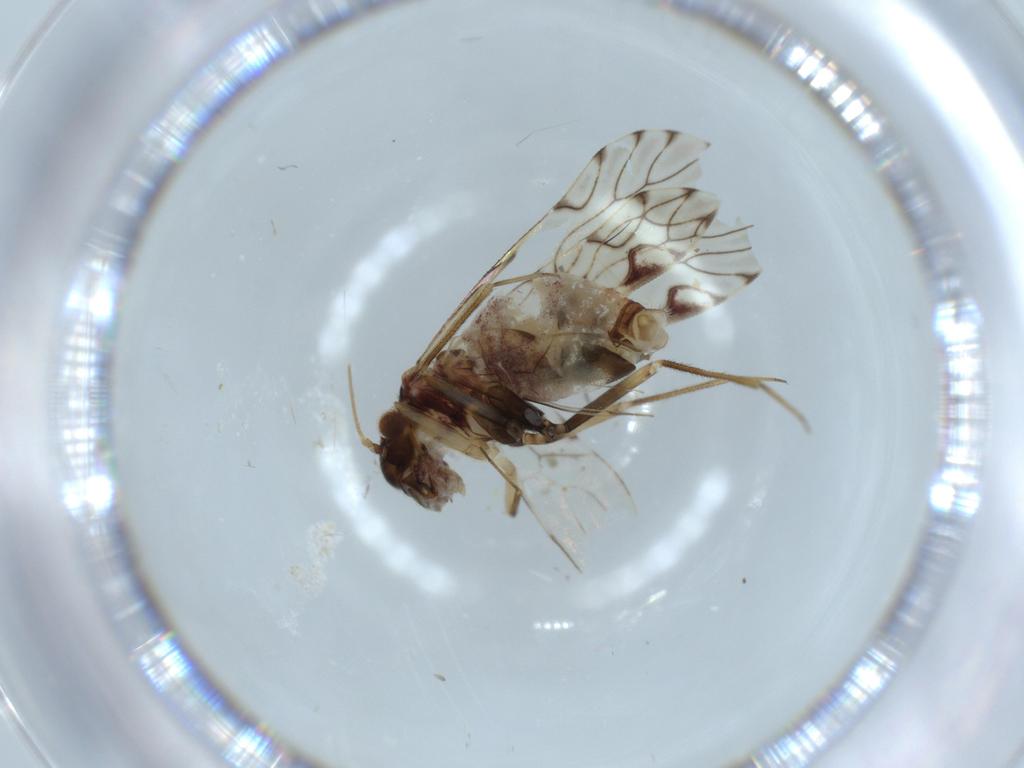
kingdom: Animalia
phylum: Arthropoda
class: Insecta
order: Psocodea
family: Epipsocidae
